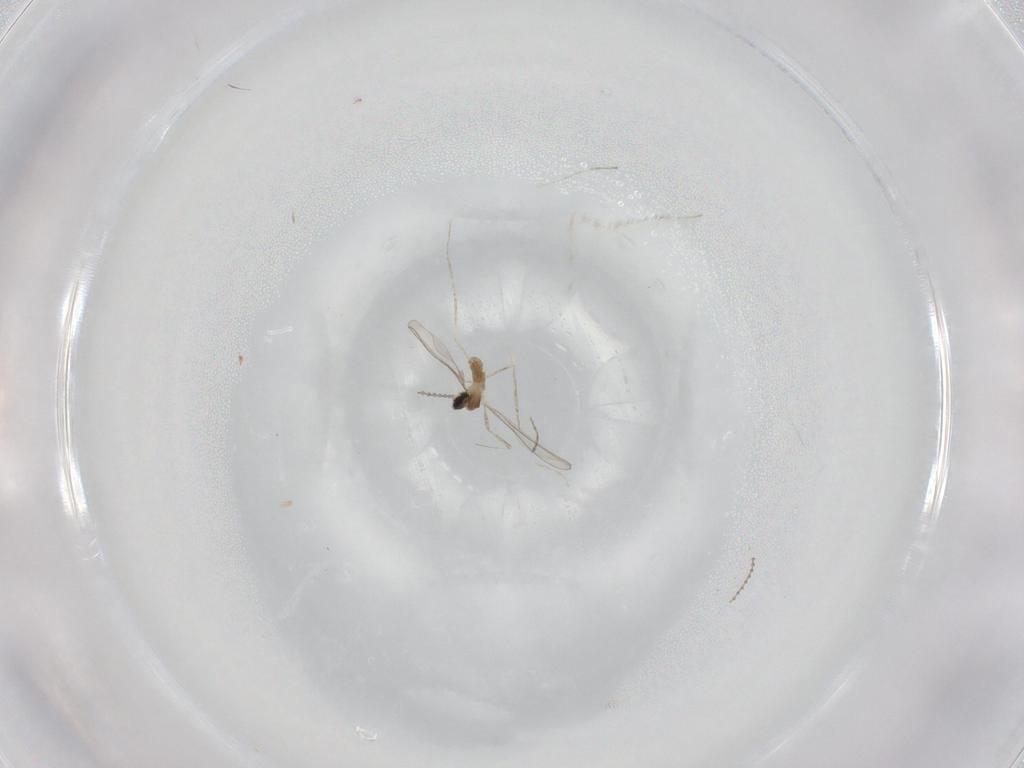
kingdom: Animalia
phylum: Arthropoda
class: Insecta
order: Diptera
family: Cecidomyiidae
